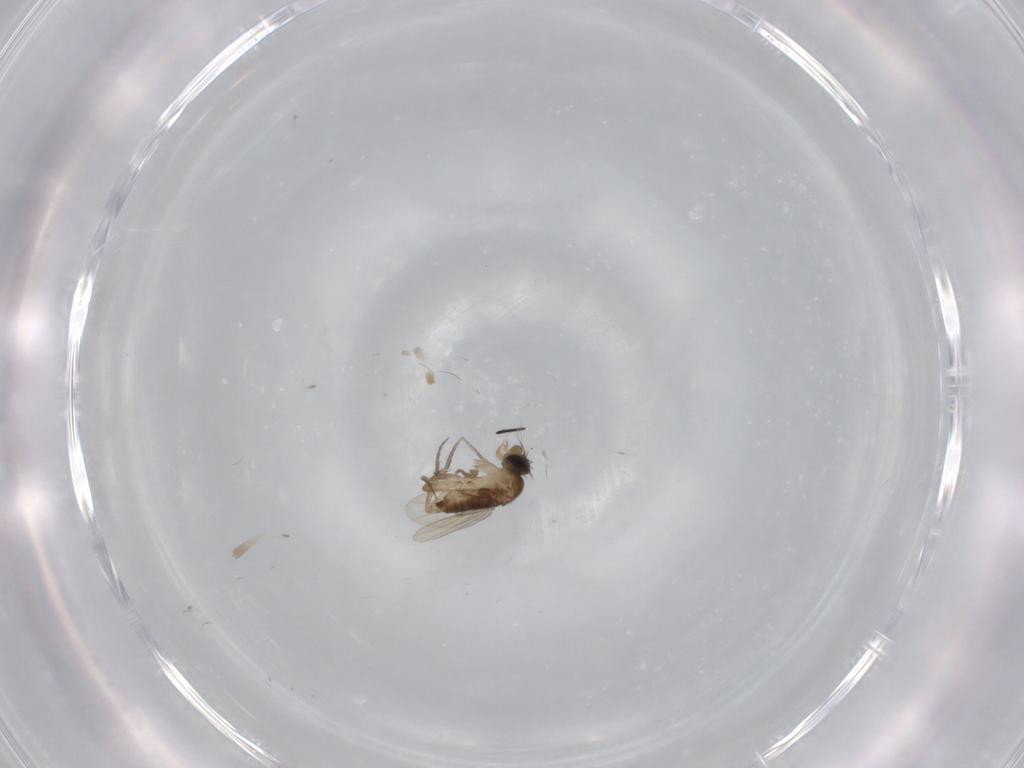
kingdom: Animalia
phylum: Arthropoda
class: Insecta
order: Diptera
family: Phoridae
